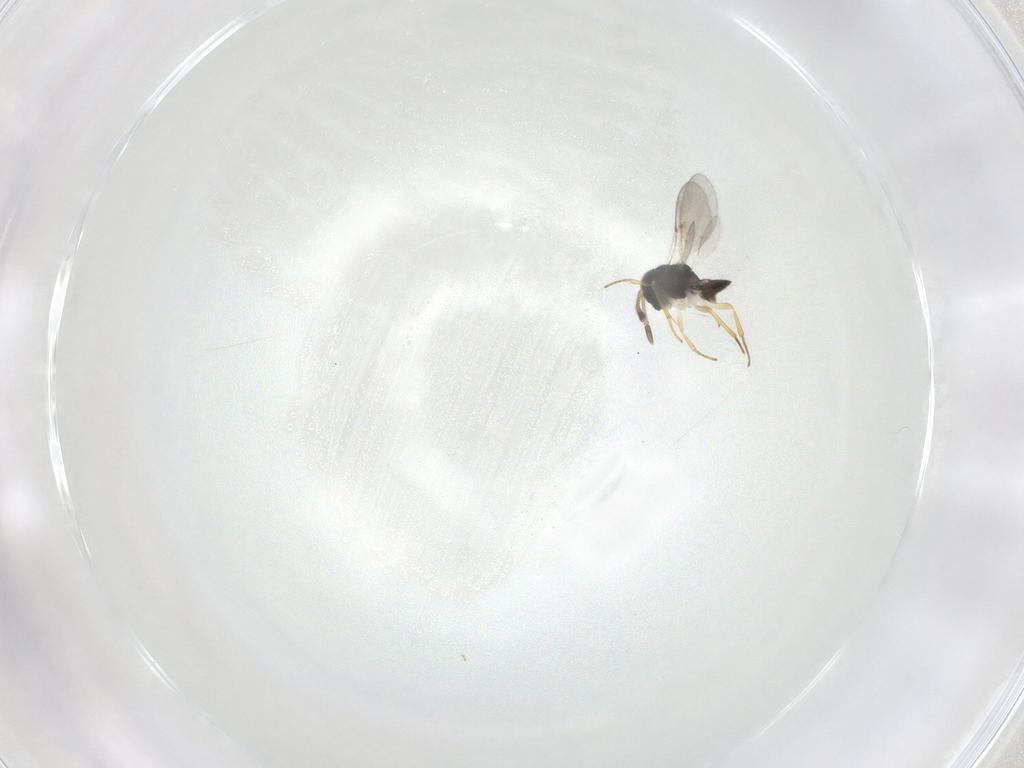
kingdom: Animalia
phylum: Arthropoda
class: Insecta
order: Hymenoptera
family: Encyrtidae
